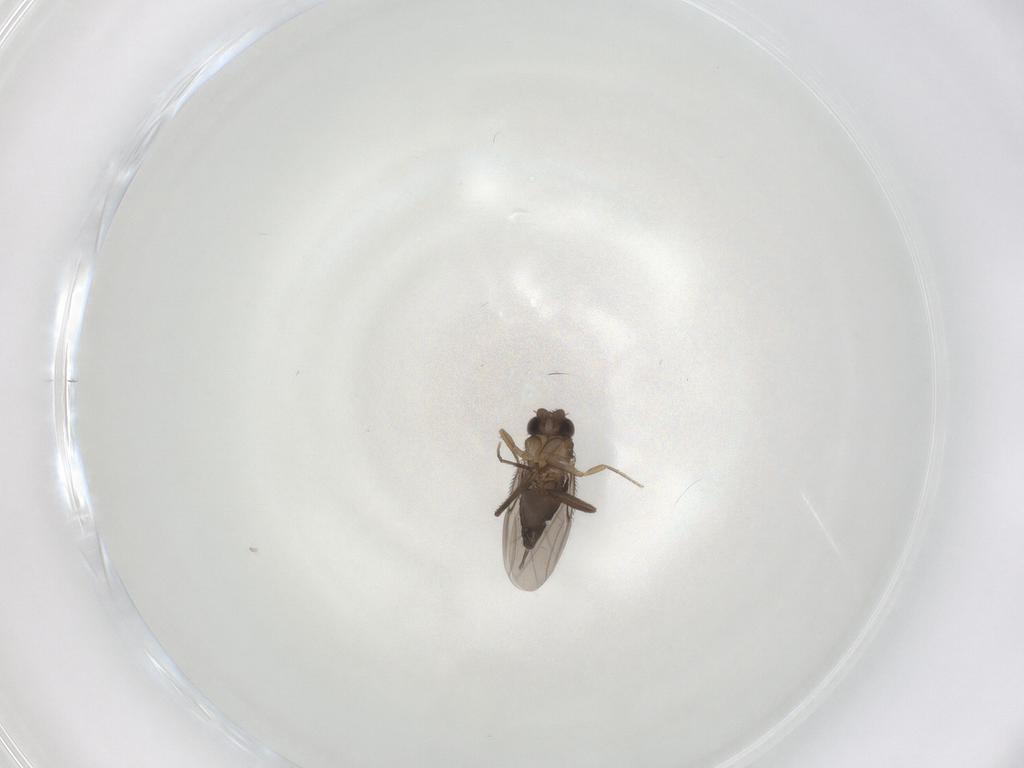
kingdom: Animalia
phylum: Arthropoda
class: Insecta
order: Diptera
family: Phoridae
